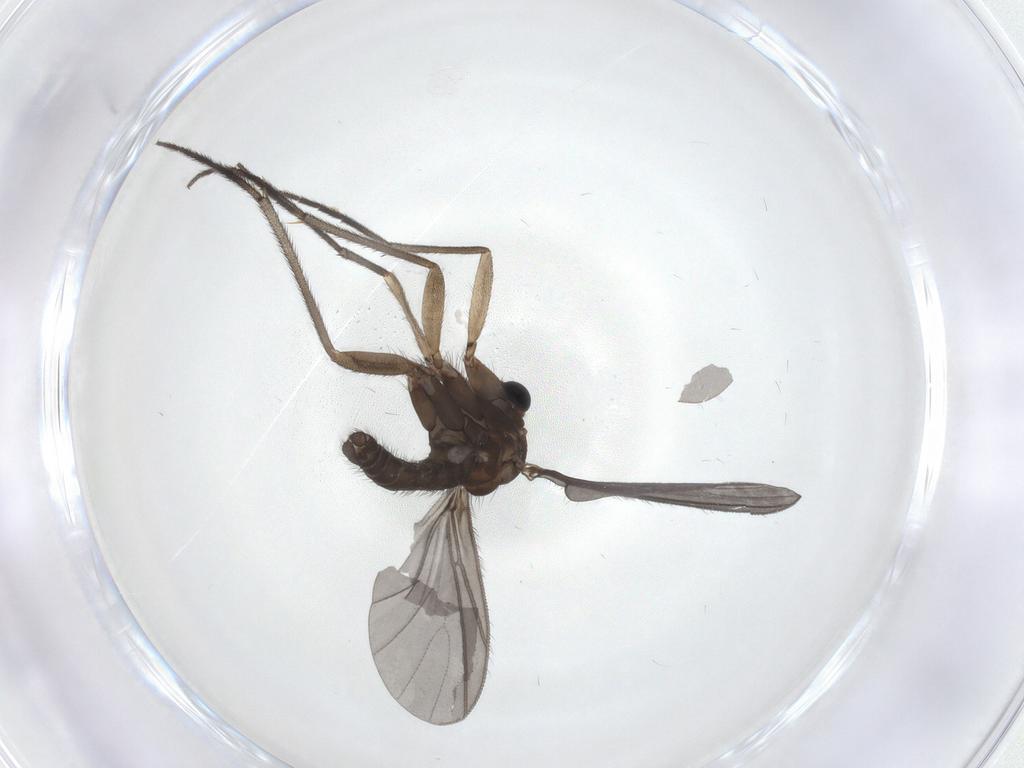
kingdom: Animalia
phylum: Arthropoda
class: Insecta
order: Diptera
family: Sciaridae
